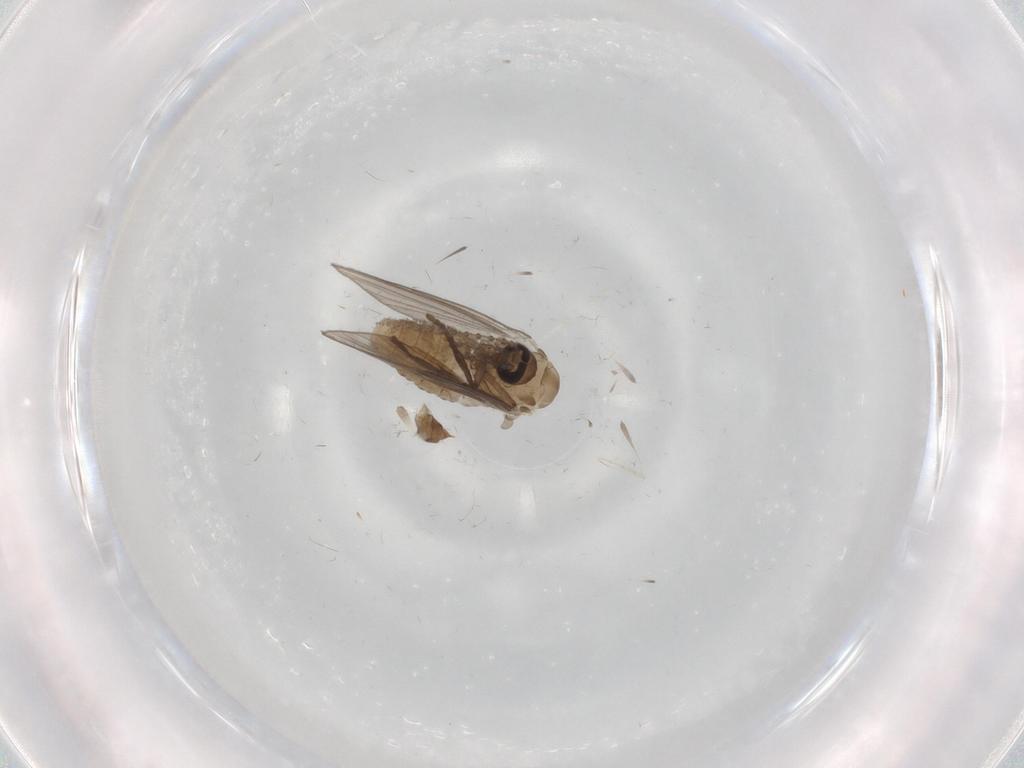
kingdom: Animalia
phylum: Arthropoda
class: Insecta
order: Diptera
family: Psychodidae
